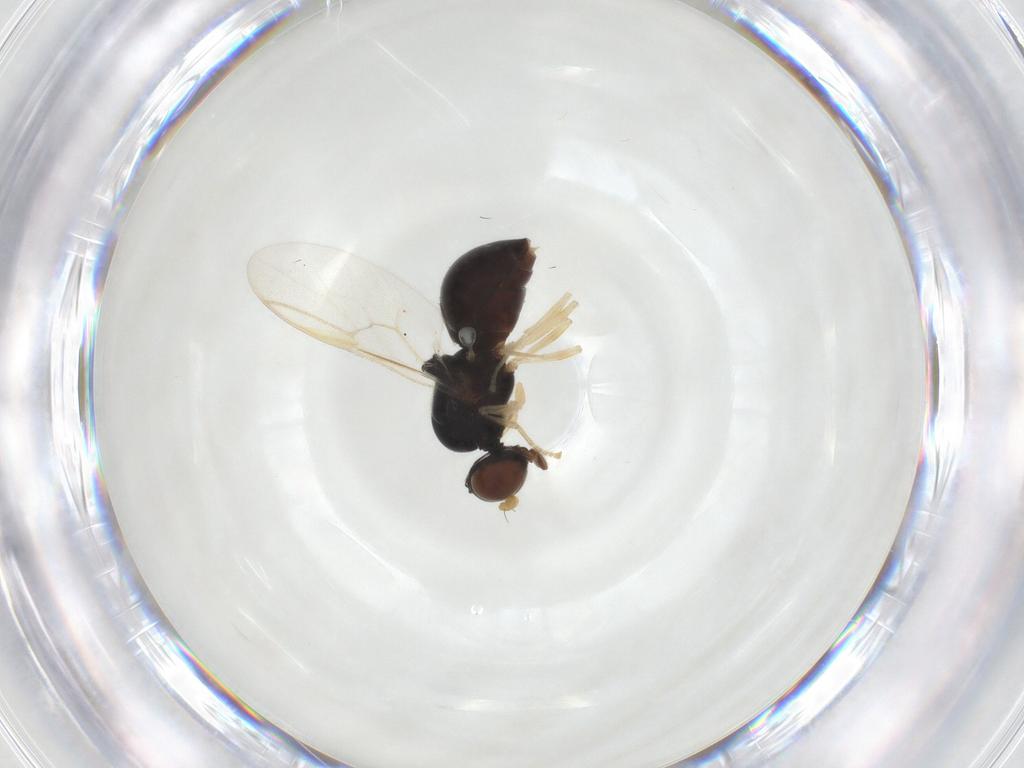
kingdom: Animalia
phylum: Arthropoda
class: Insecta
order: Diptera
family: Stratiomyidae
